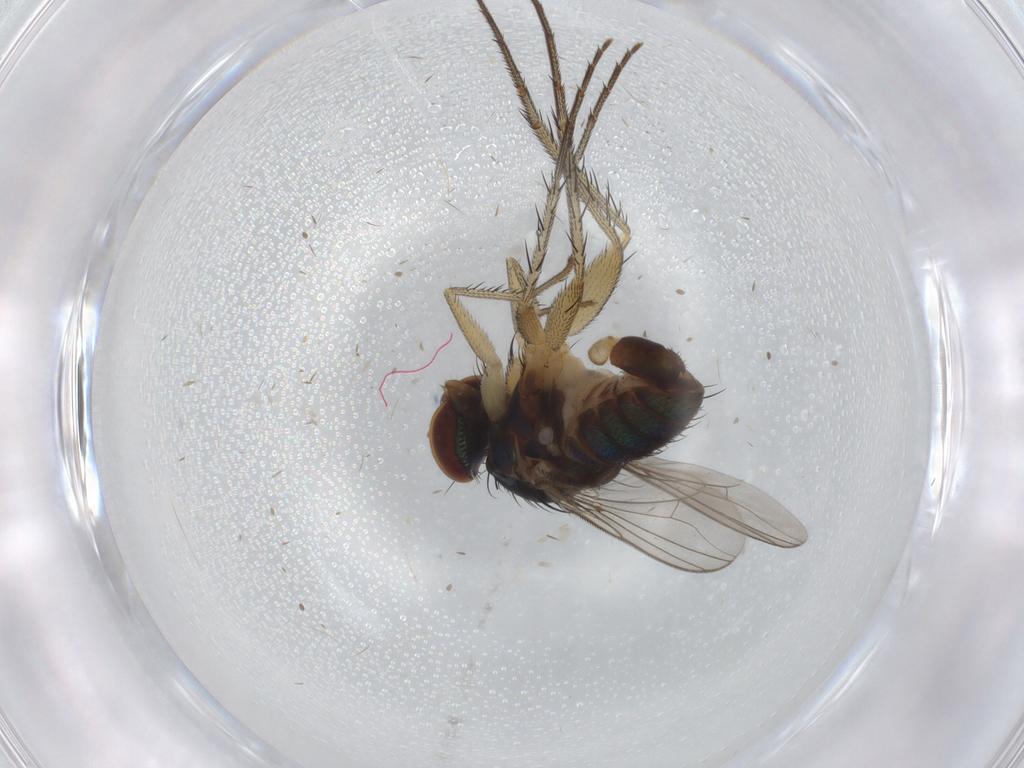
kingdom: Animalia
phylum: Arthropoda
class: Insecta
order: Diptera
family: Dolichopodidae
